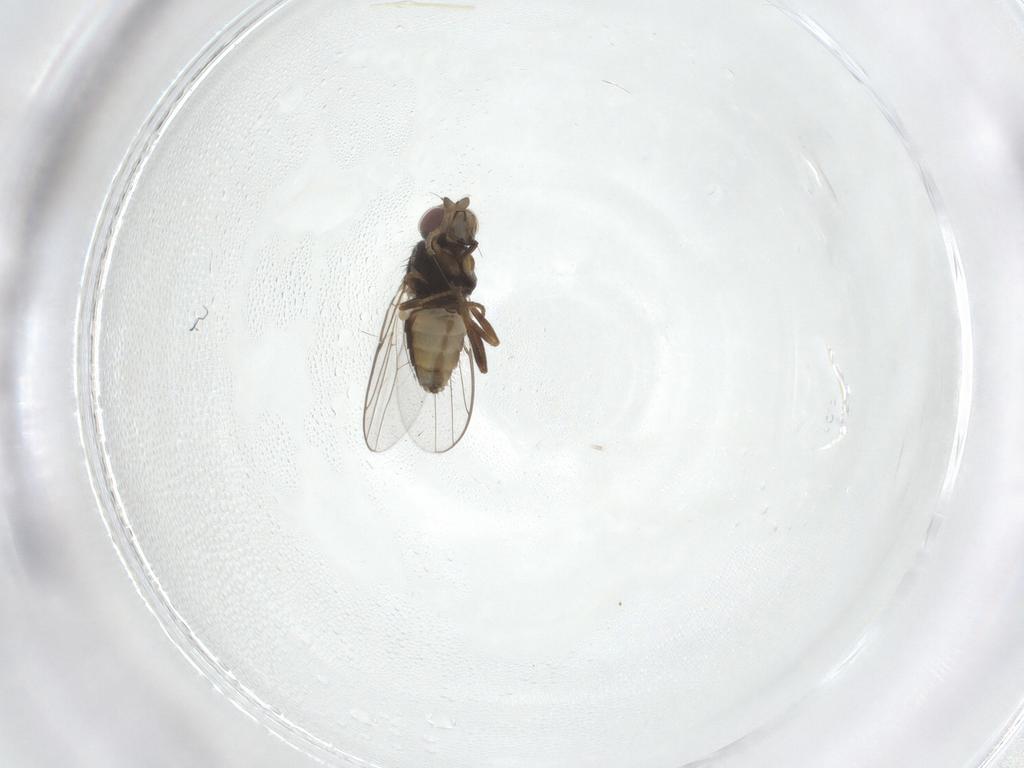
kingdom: Animalia
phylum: Arthropoda
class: Insecta
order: Diptera
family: Chloropidae
